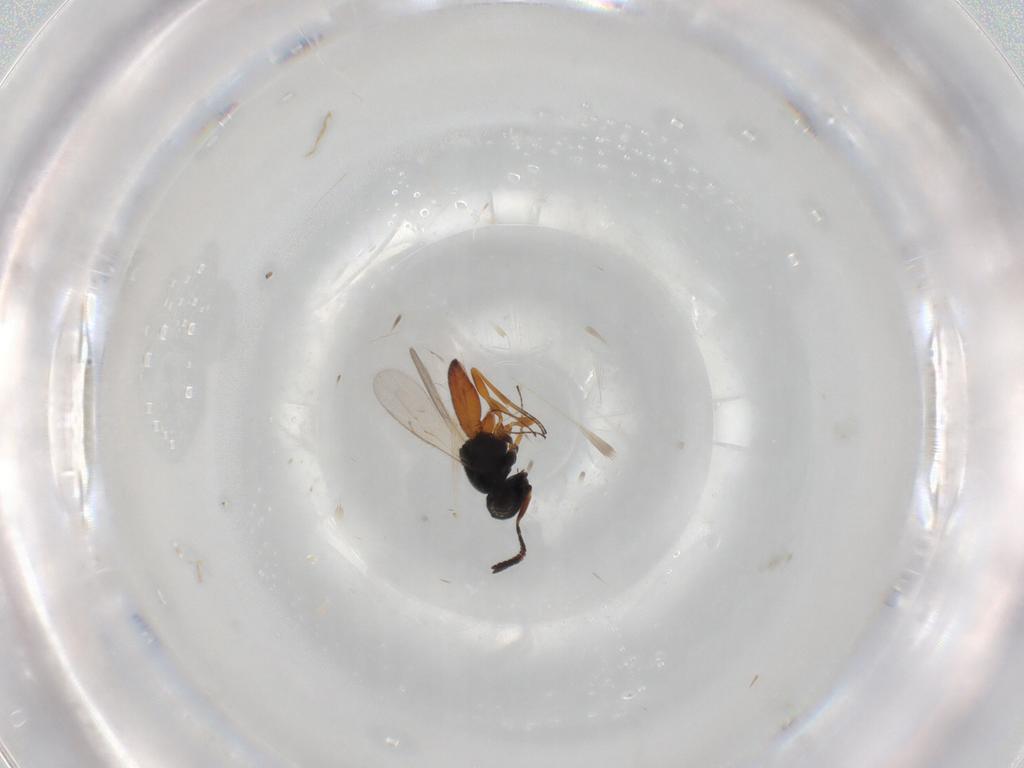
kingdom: Animalia
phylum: Arthropoda
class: Insecta
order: Hymenoptera
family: Scelionidae
